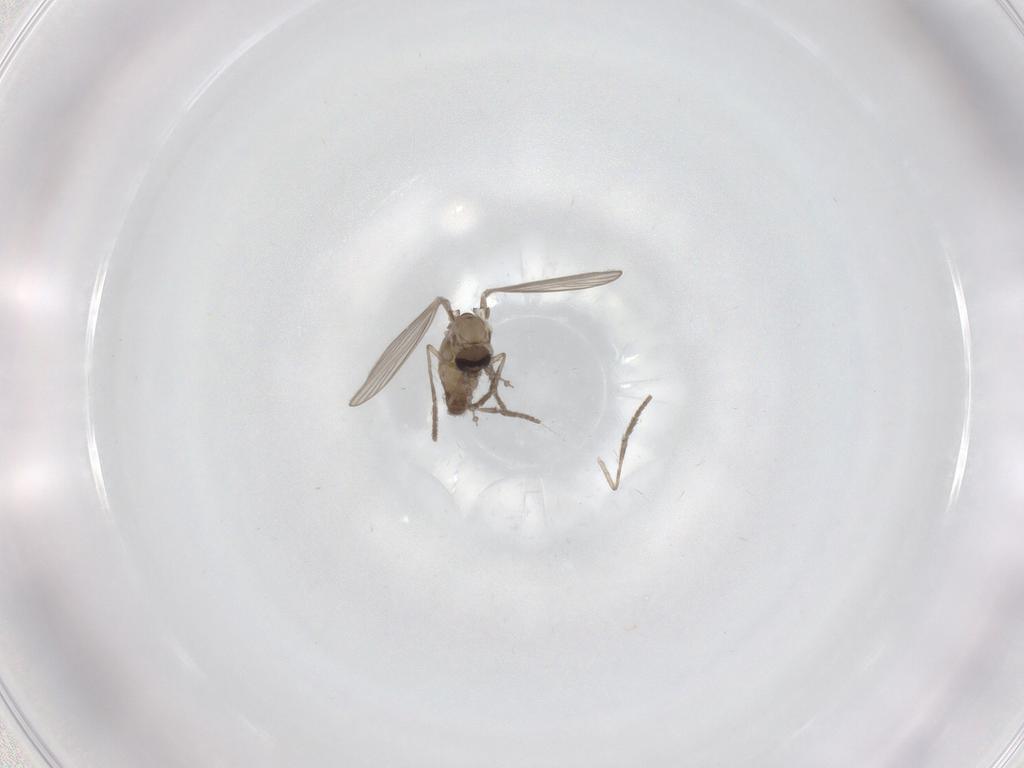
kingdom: Animalia
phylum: Arthropoda
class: Insecta
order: Diptera
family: Psychodidae
